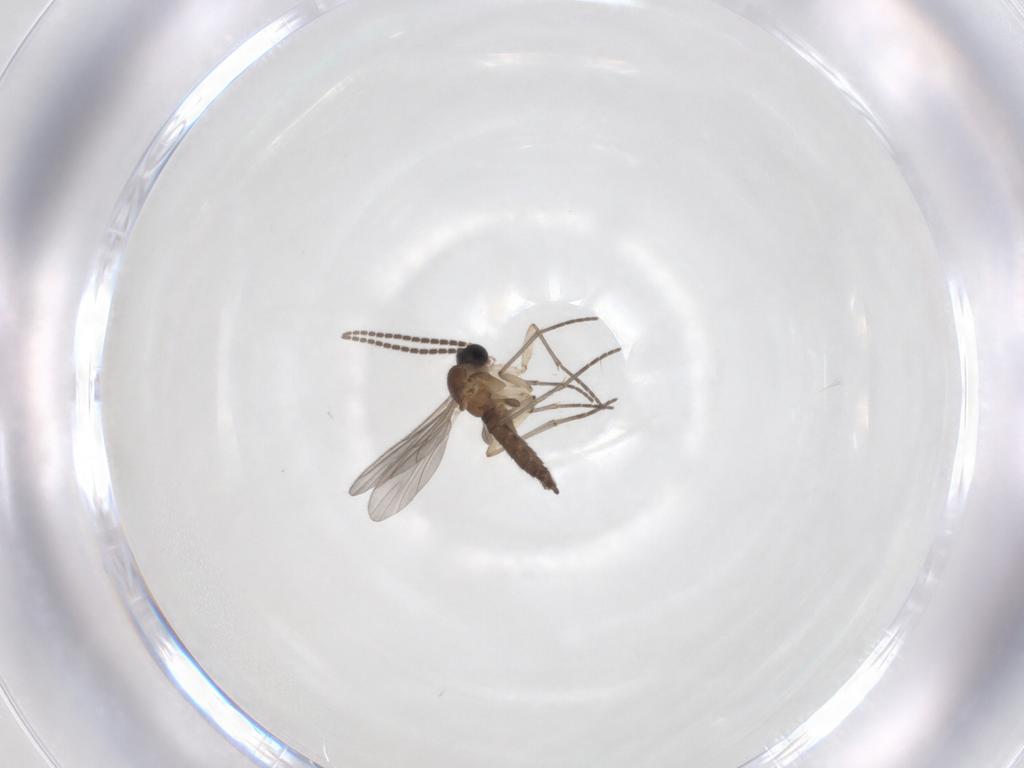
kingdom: Animalia
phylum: Arthropoda
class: Insecta
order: Diptera
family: Sciaridae
